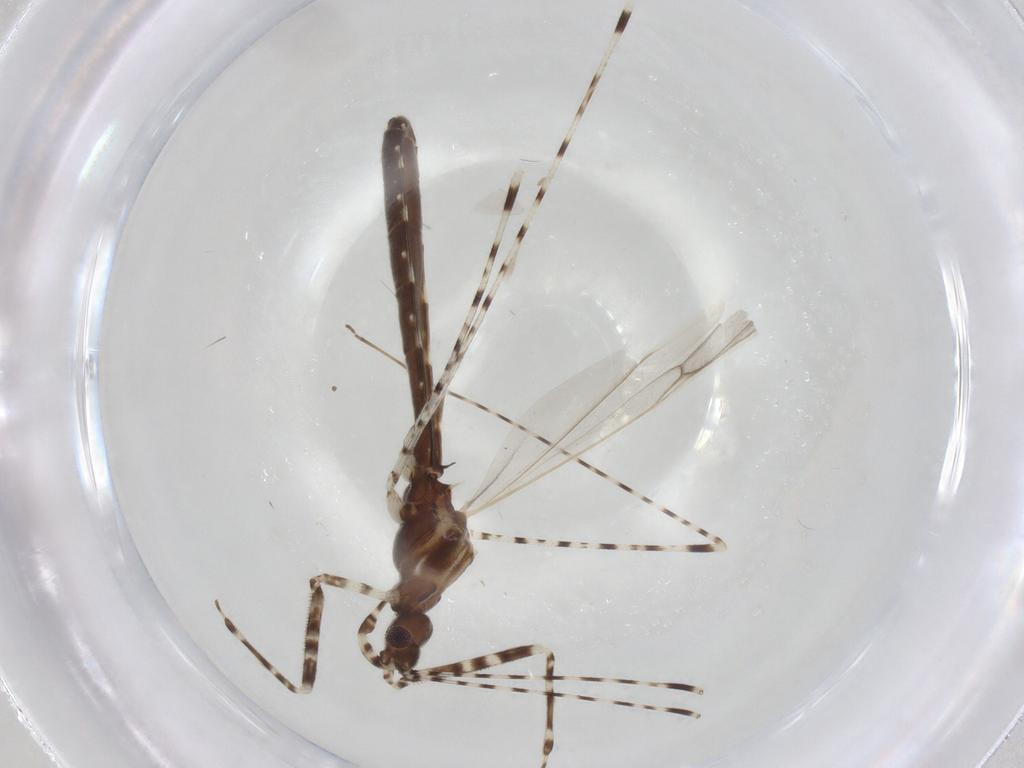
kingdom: Animalia
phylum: Arthropoda
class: Insecta
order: Hemiptera
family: Reduviidae
